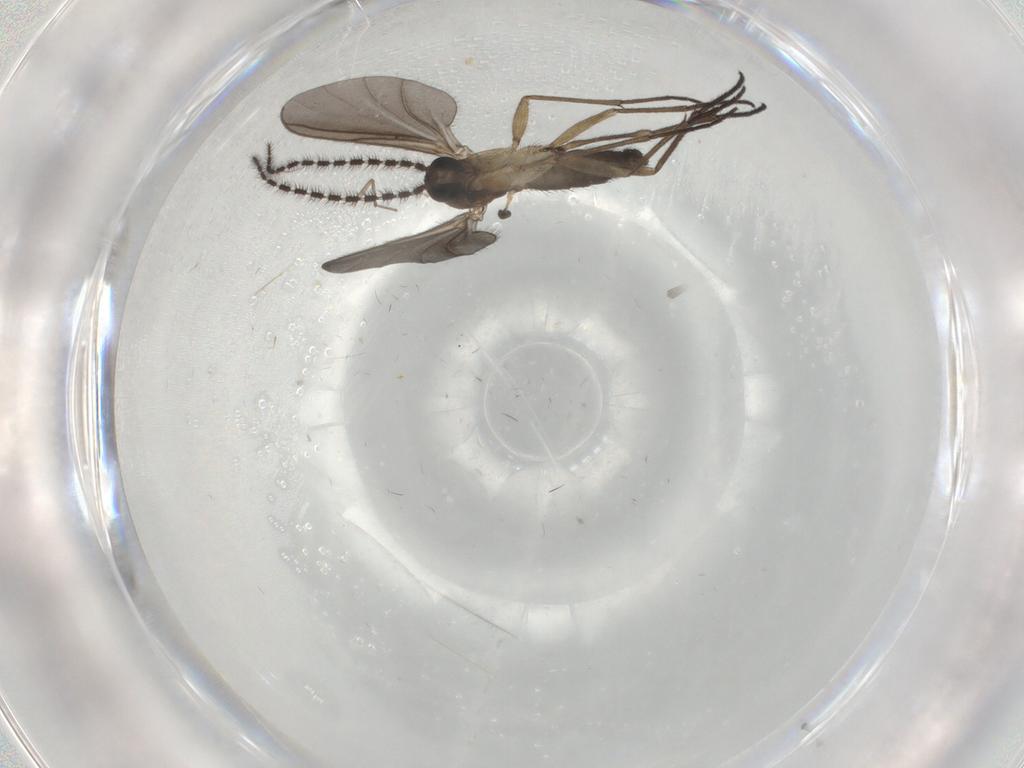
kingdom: Animalia
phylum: Arthropoda
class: Insecta
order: Diptera
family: Sciaridae
